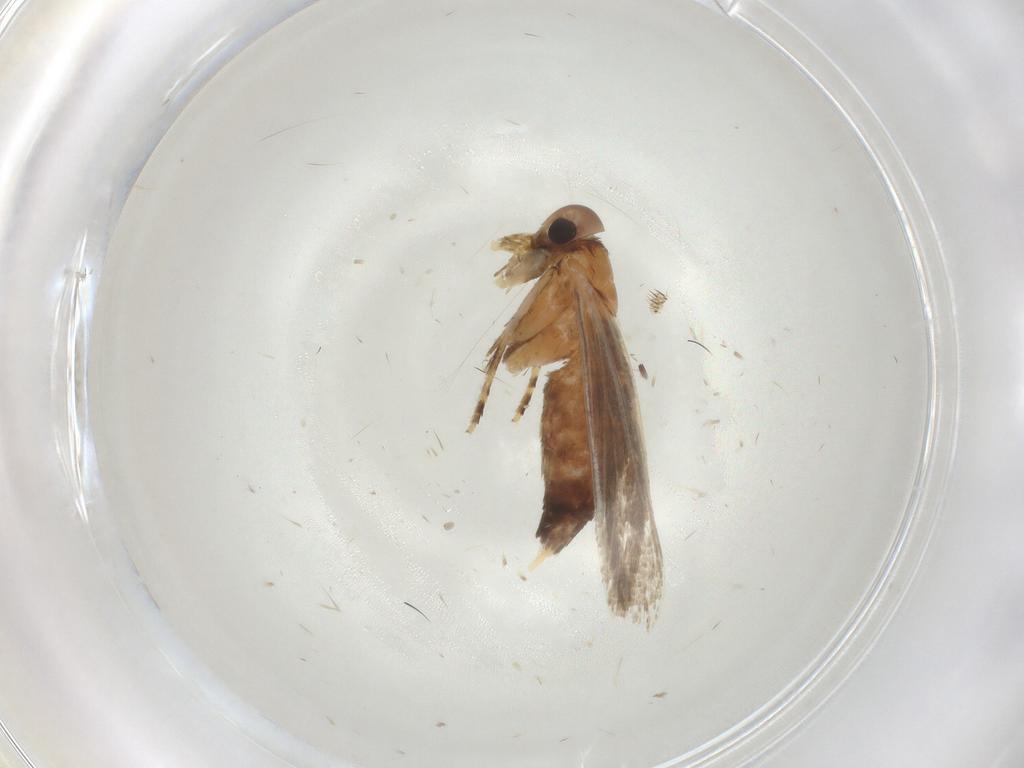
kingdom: Animalia
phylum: Arthropoda
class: Insecta
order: Lepidoptera
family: Oecophoridae
